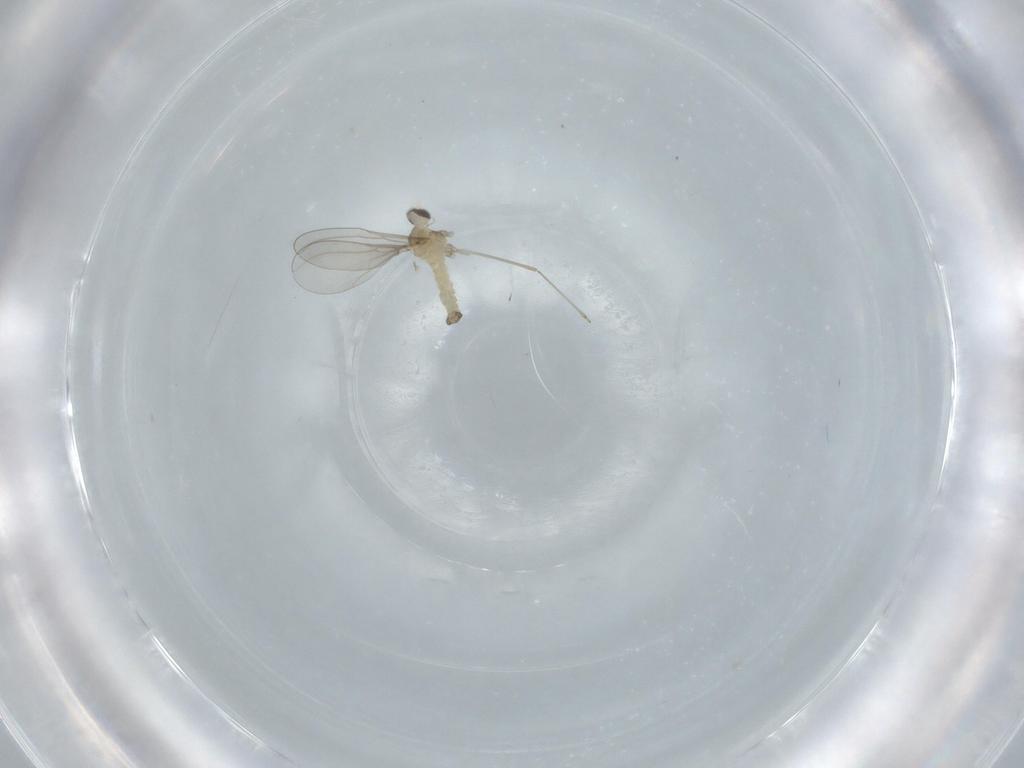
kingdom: Animalia
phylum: Arthropoda
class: Insecta
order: Diptera
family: Cecidomyiidae
